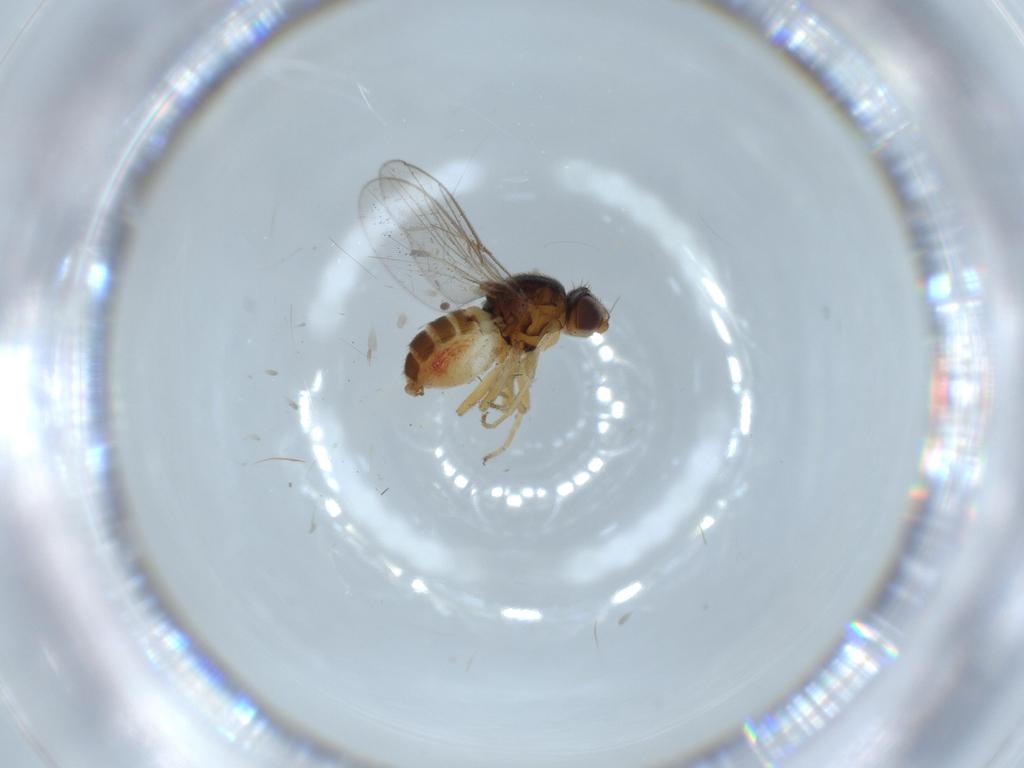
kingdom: Animalia
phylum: Arthropoda
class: Insecta
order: Diptera
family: Chloropidae
